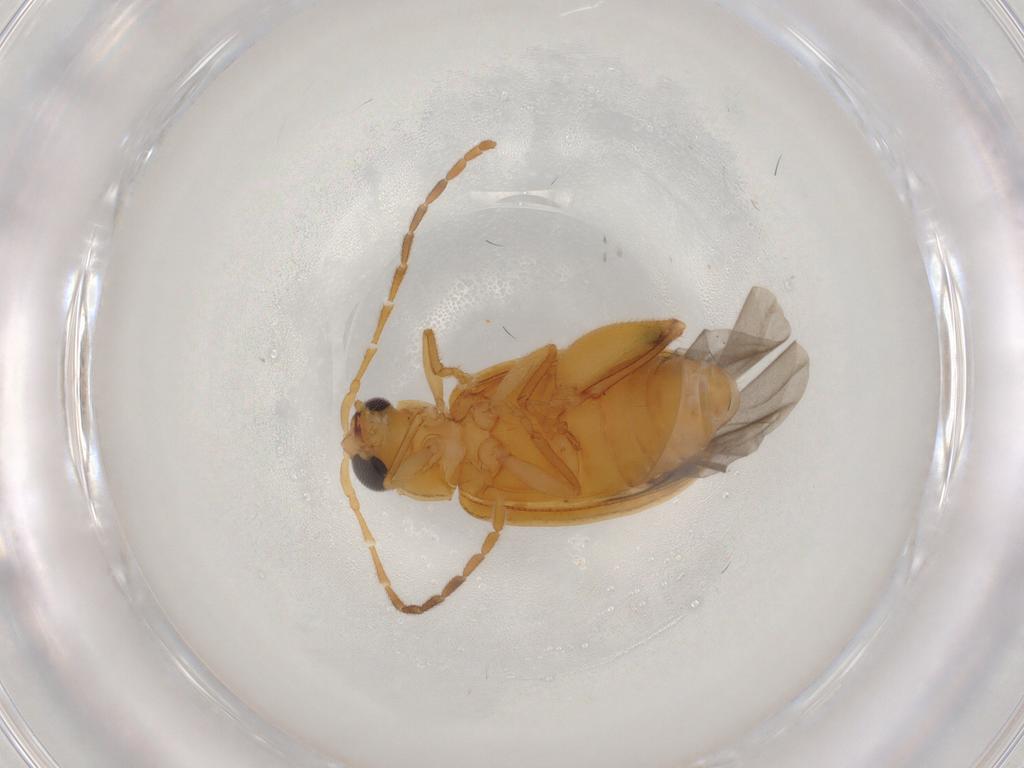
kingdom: Animalia
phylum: Arthropoda
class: Insecta
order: Coleoptera
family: Chrysomelidae
